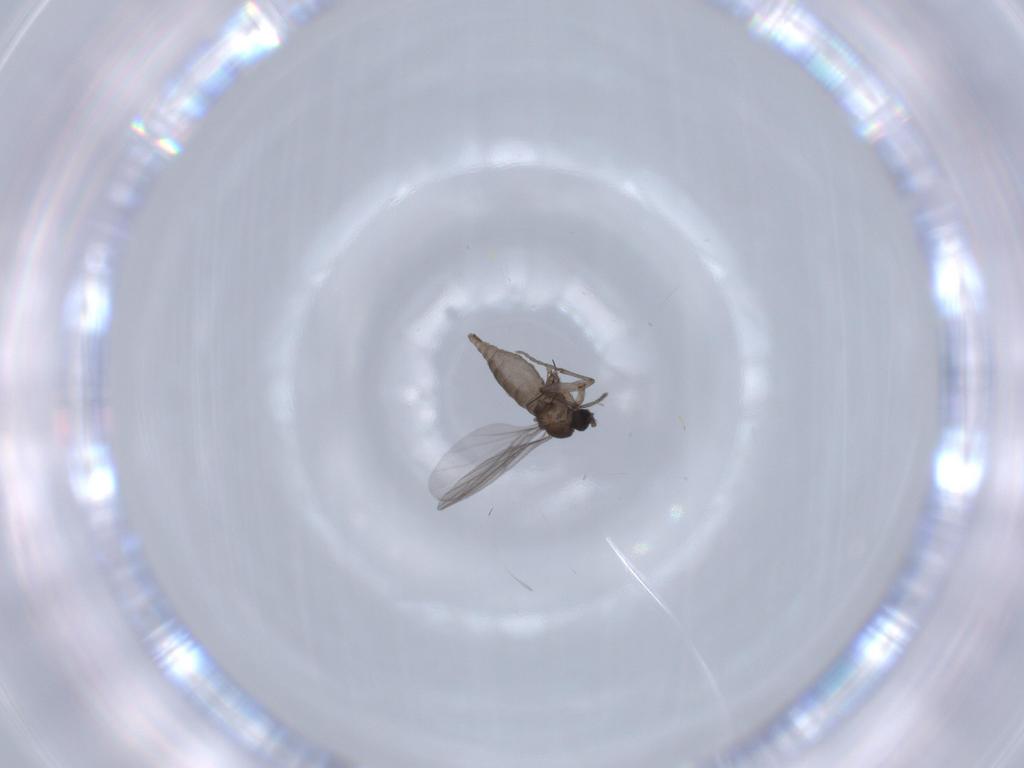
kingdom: Animalia
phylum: Arthropoda
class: Insecta
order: Diptera
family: Sciaridae
